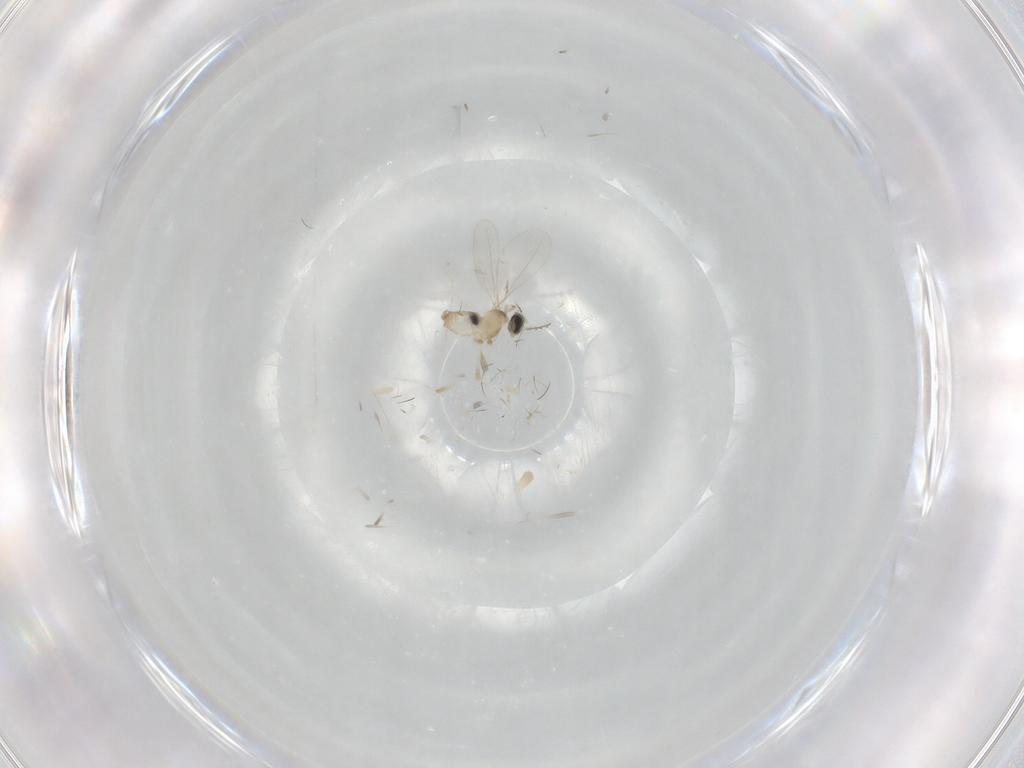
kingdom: Animalia
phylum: Arthropoda
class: Insecta
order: Diptera
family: Cecidomyiidae
